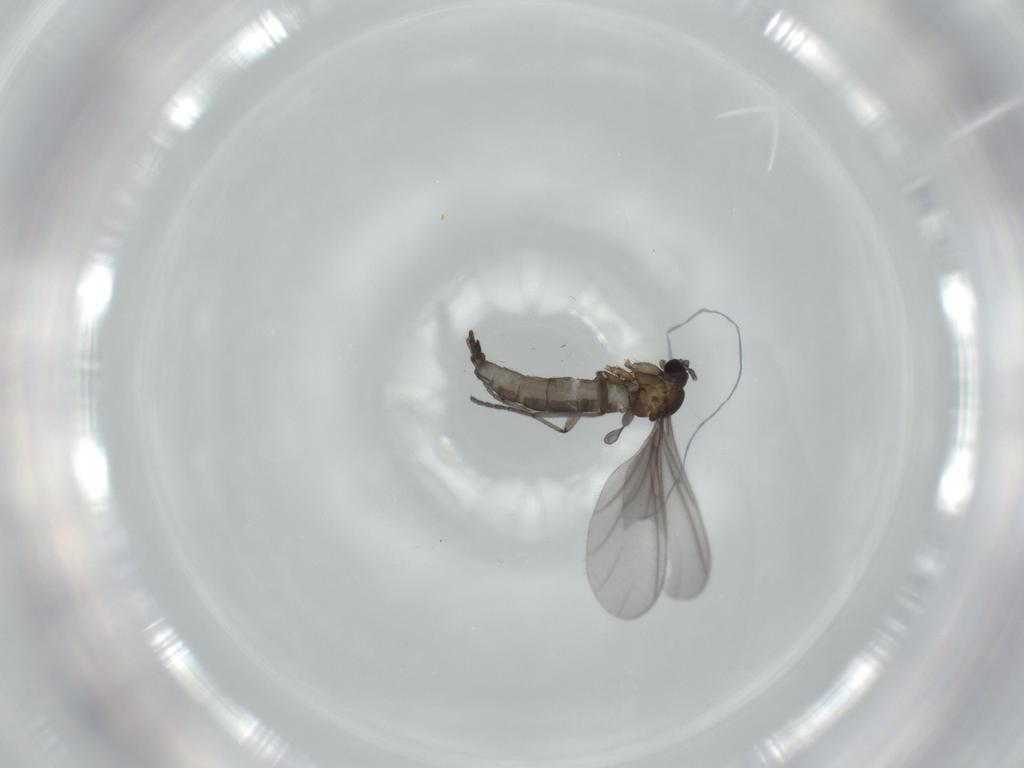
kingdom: Animalia
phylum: Arthropoda
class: Insecta
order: Diptera
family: Sciaridae
